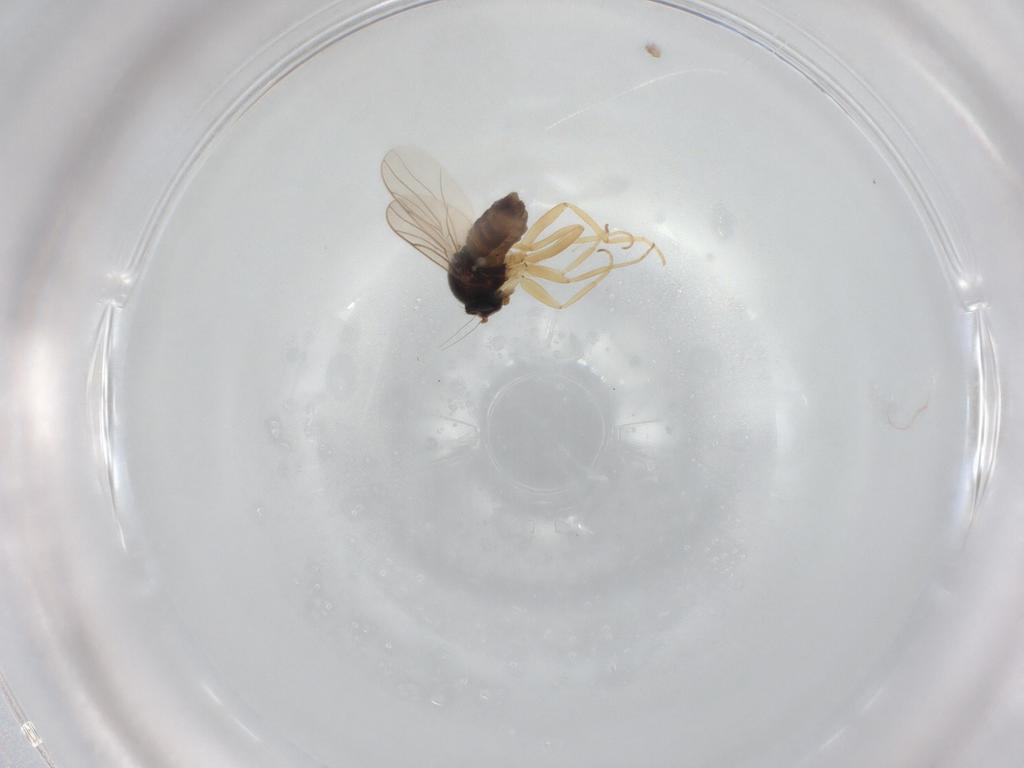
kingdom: Animalia
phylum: Arthropoda
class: Insecta
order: Diptera
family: Hybotidae
